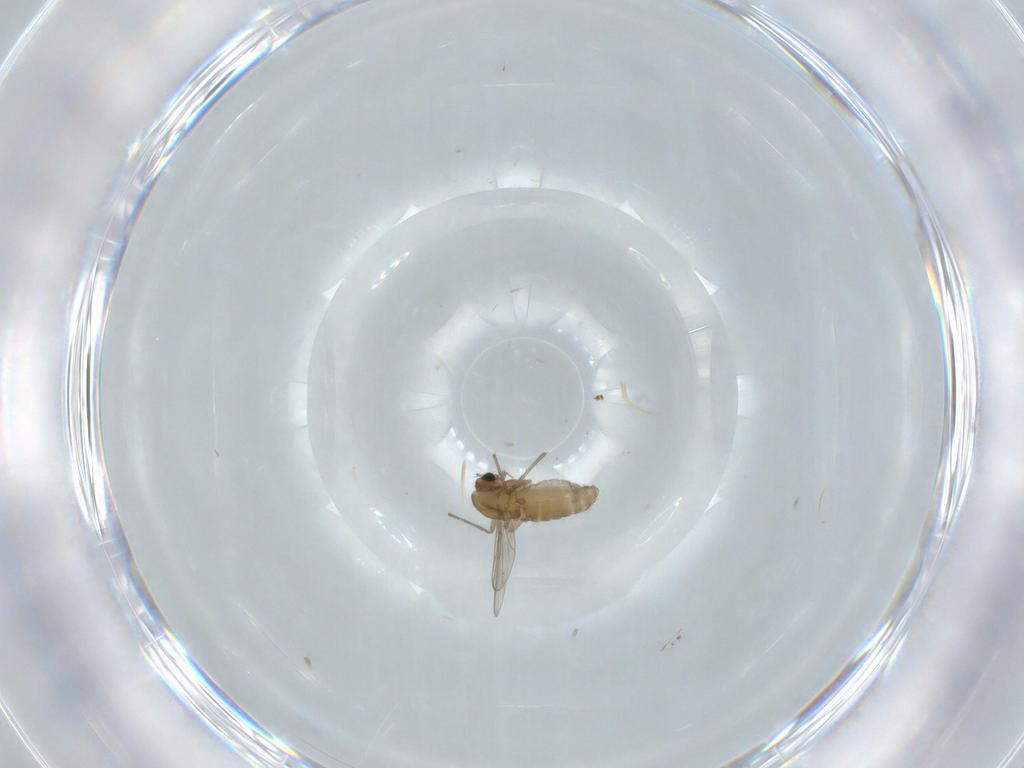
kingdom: Animalia
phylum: Arthropoda
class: Insecta
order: Diptera
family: Chironomidae
